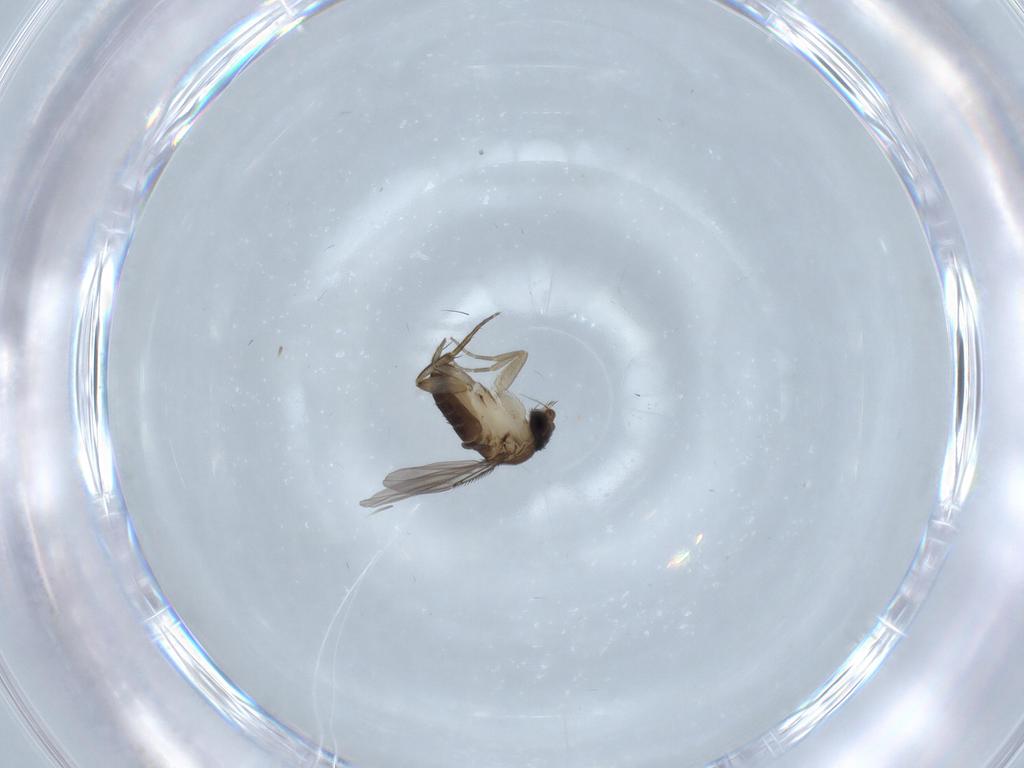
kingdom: Animalia
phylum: Arthropoda
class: Insecta
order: Diptera
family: Phoridae
